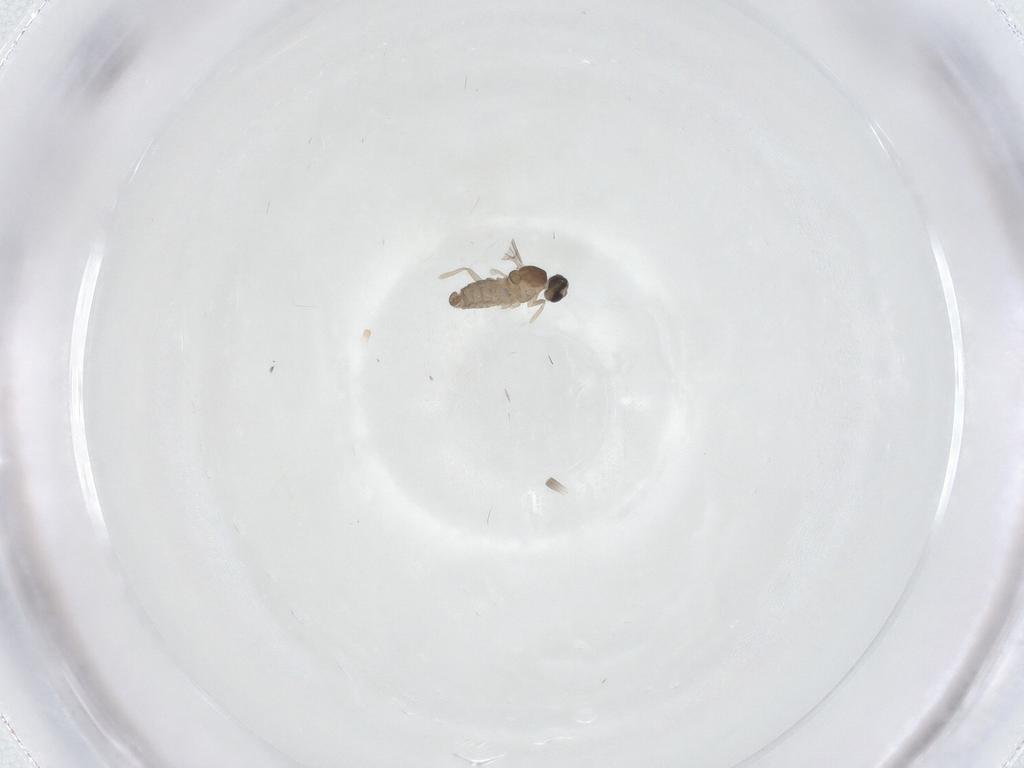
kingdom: Animalia
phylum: Arthropoda
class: Insecta
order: Diptera
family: Cecidomyiidae
